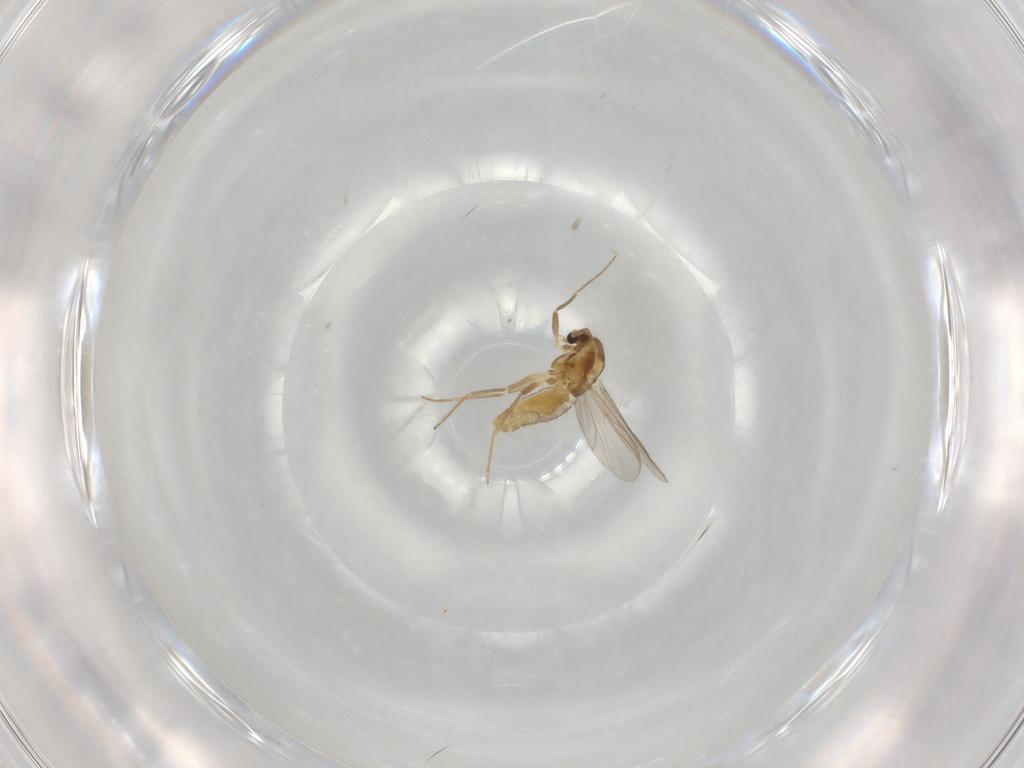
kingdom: Animalia
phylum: Arthropoda
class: Insecta
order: Diptera
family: Chironomidae
